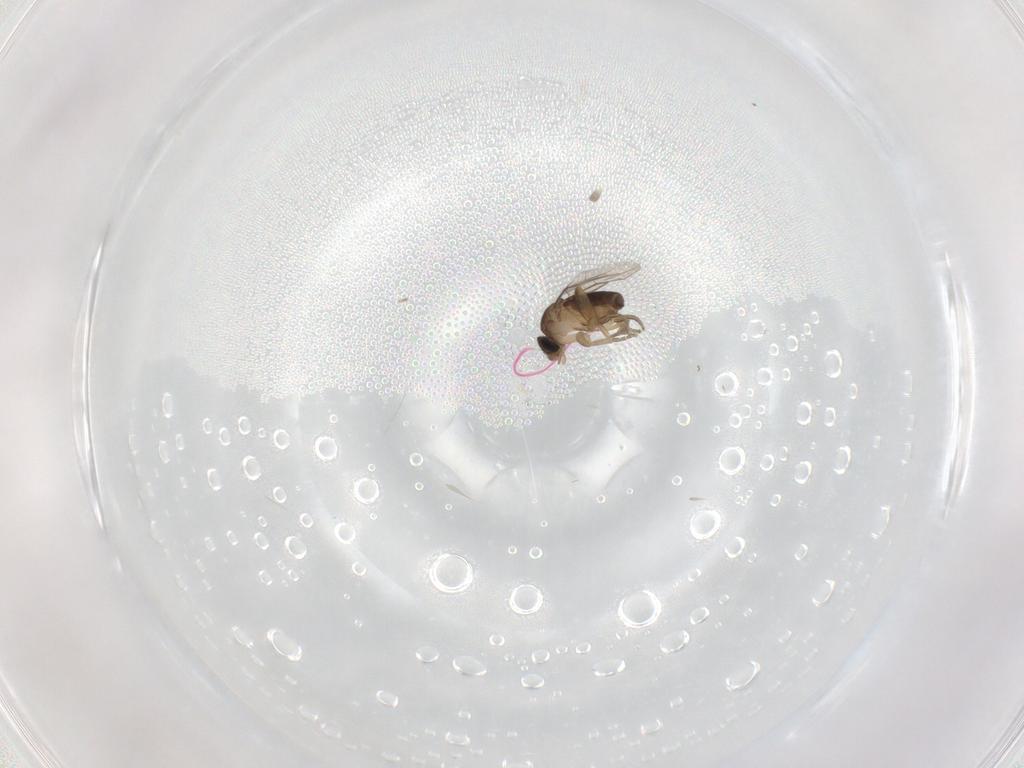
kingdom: Animalia
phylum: Arthropoda
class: Insecta
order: Diptera
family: Phoridae
